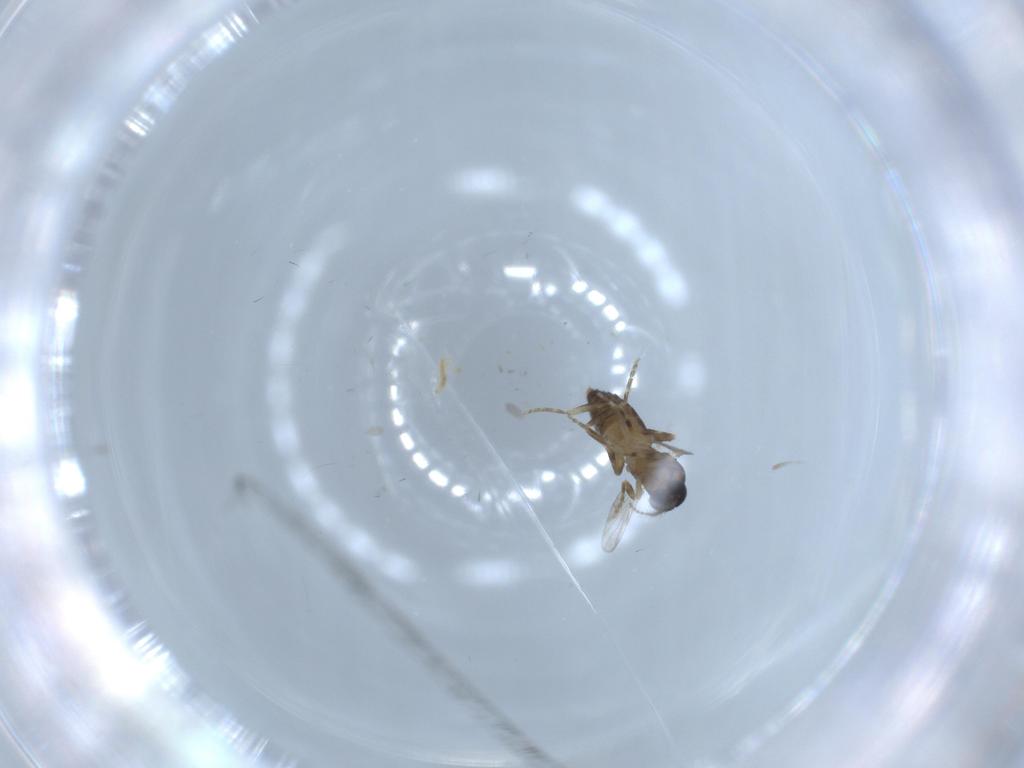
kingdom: Animalia
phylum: Arthropoda
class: Insecta
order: Diptera
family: Ceratopogonidae
